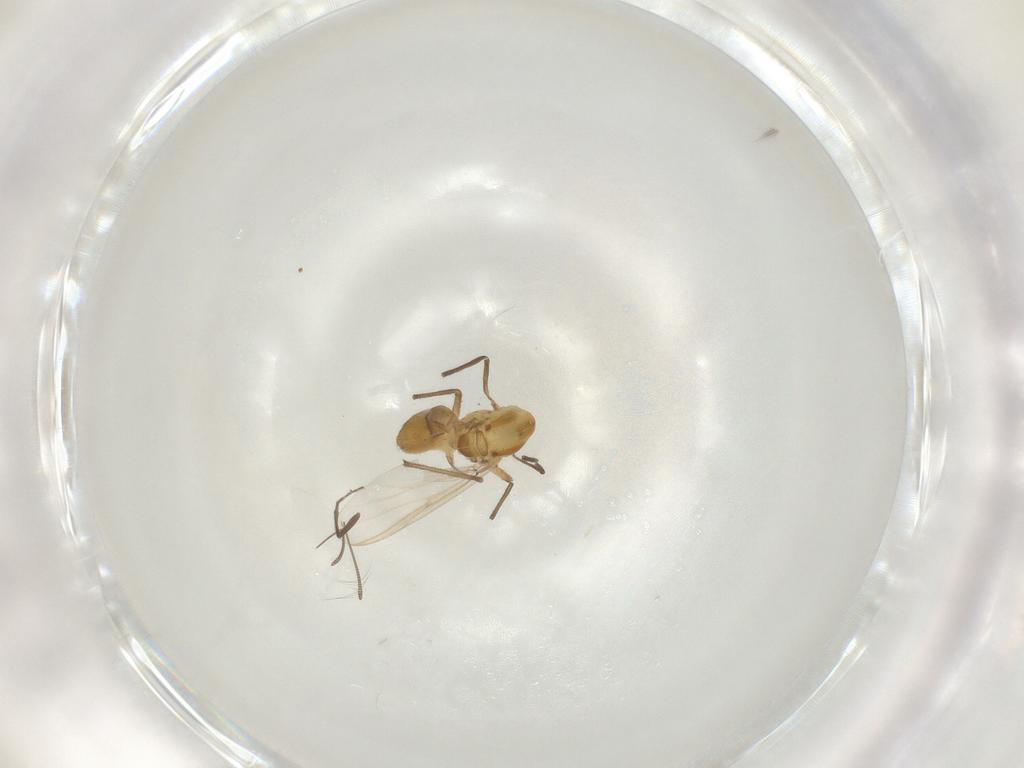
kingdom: Animalia
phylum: Arthropoda
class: Insecta
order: Diptera
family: Chironomidae
